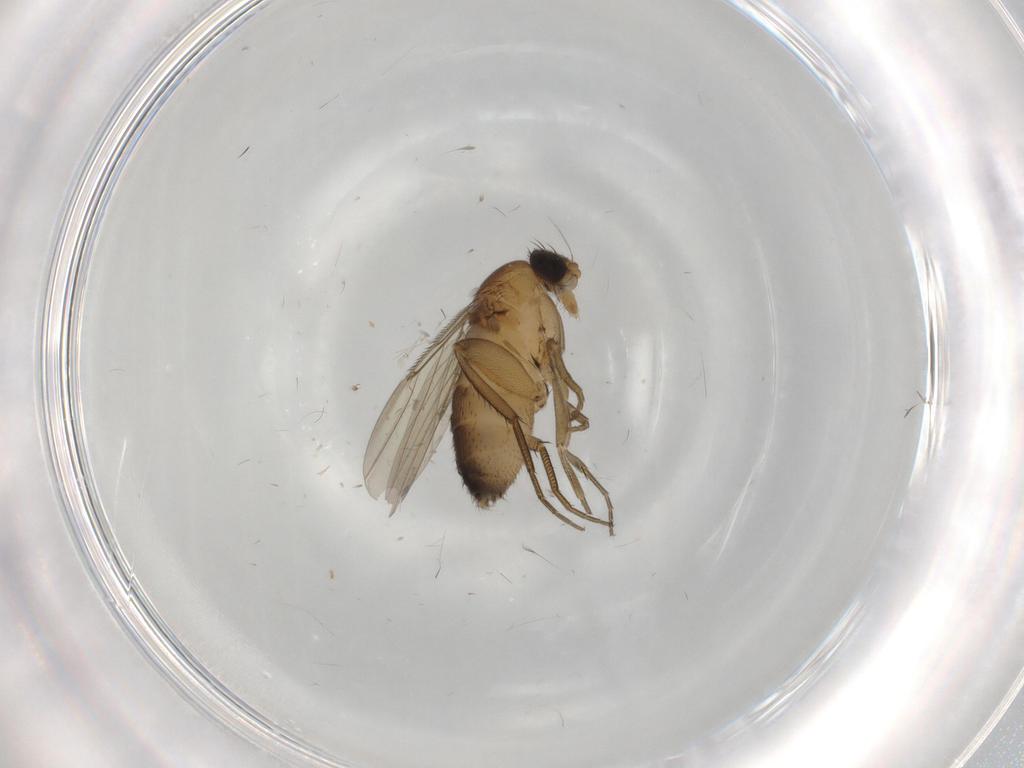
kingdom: Animalia
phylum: Arthropoda
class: Insecta
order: Diptera
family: Phoridae
